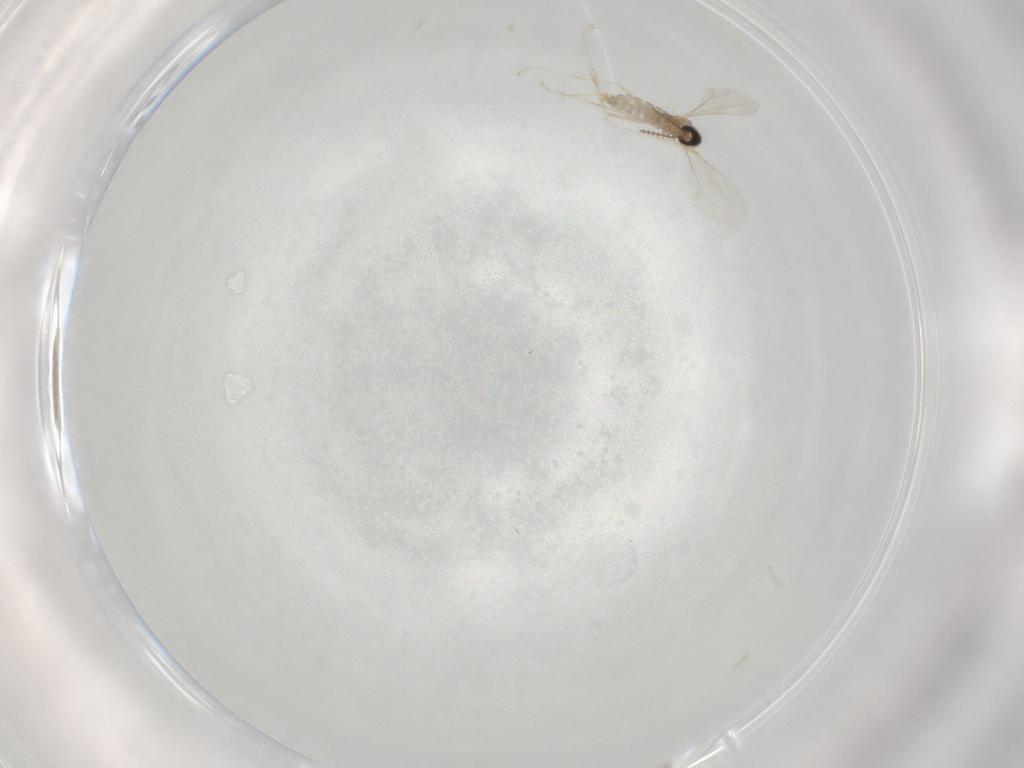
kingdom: Animalia
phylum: Arthropoda
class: Insecta
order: Diptera
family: Cecidomyiidae
